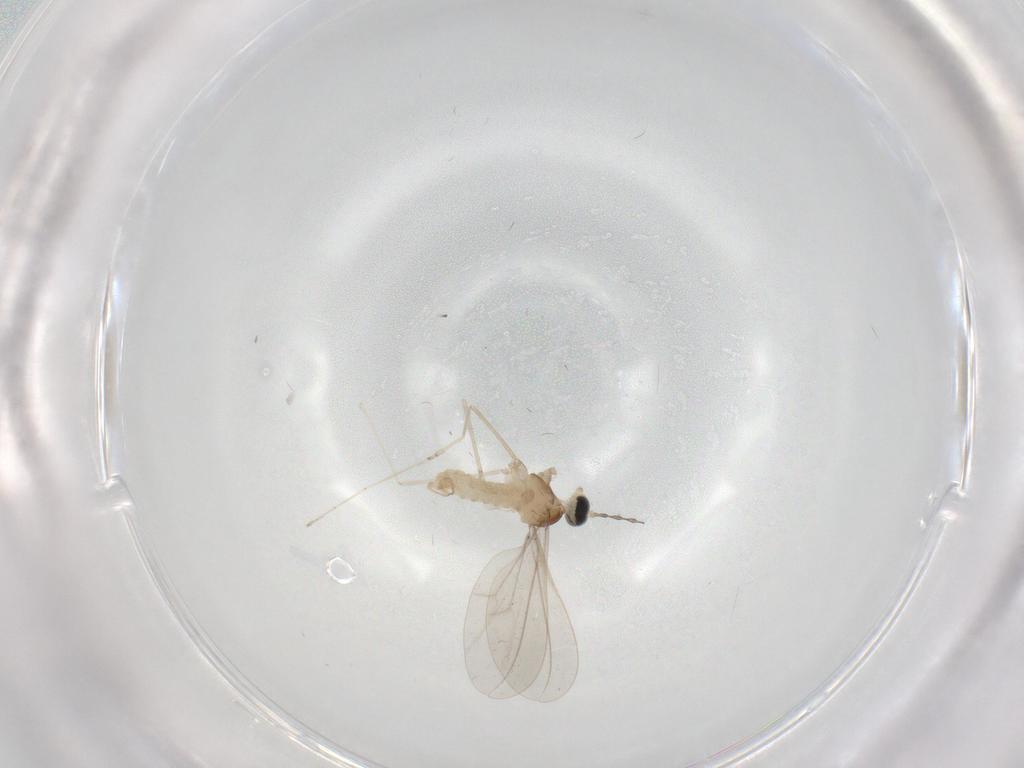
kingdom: Animalia
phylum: Arthropoda
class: Insecta
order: Diptera
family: Cecidomyiidae
